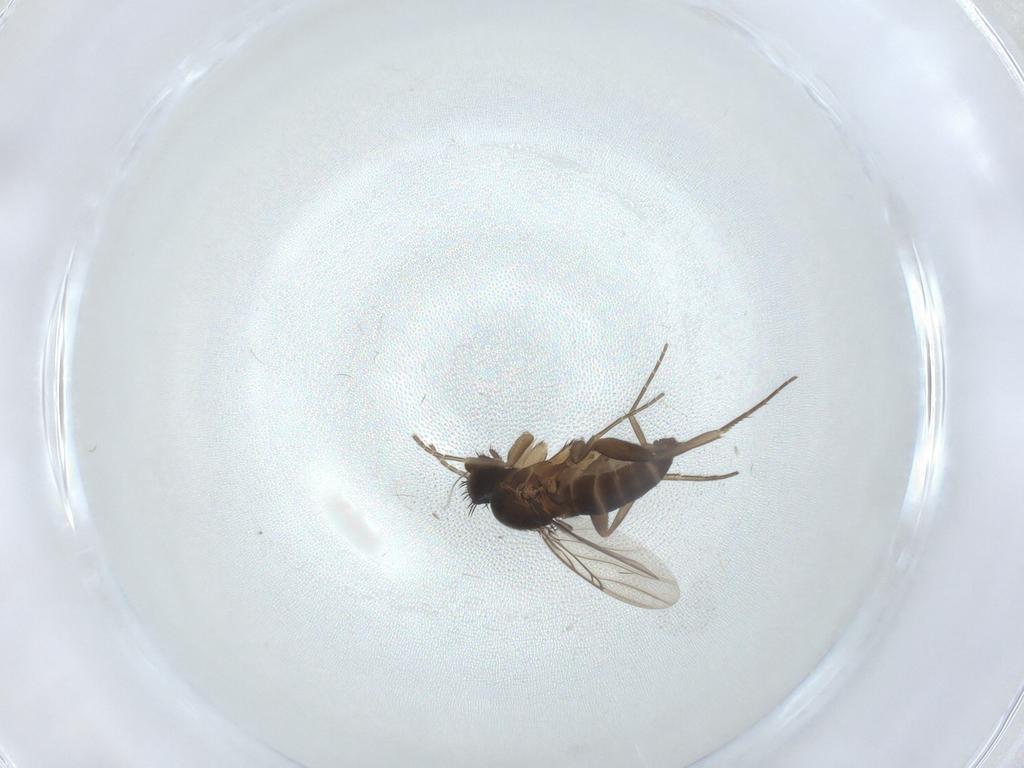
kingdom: Animalia
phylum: Arthropoda
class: Insecta
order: Diptera
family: Phoridae
